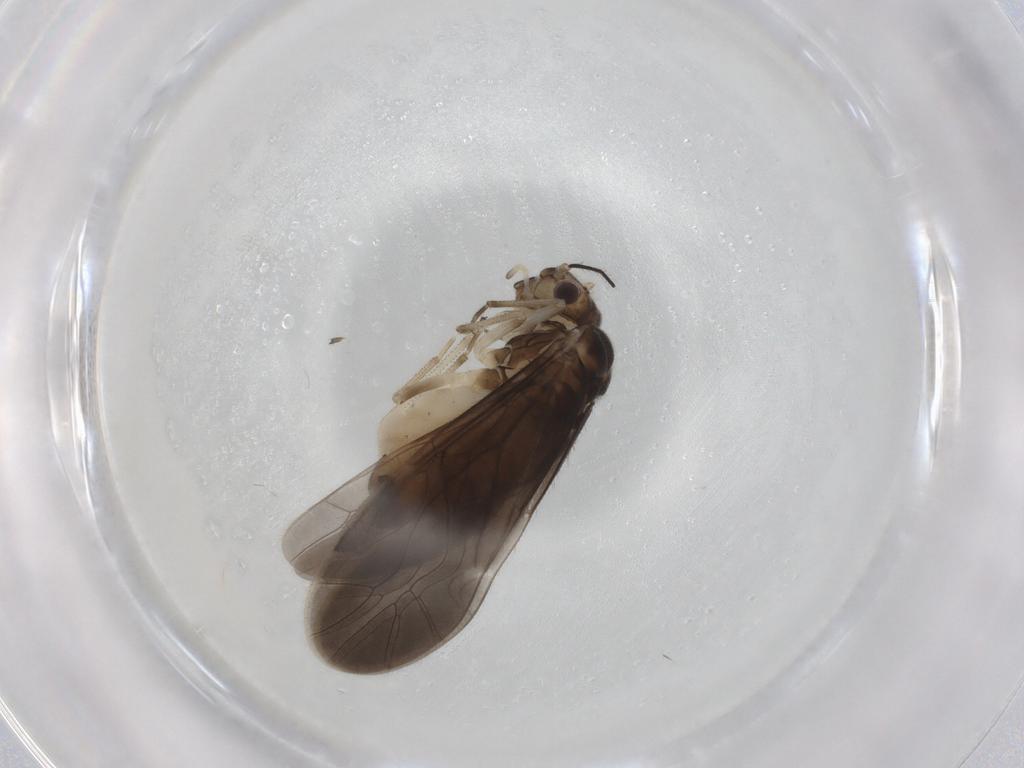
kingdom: Animalia
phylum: Arthropoda
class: Insecta
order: Psocodea
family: Caeciliusidae
